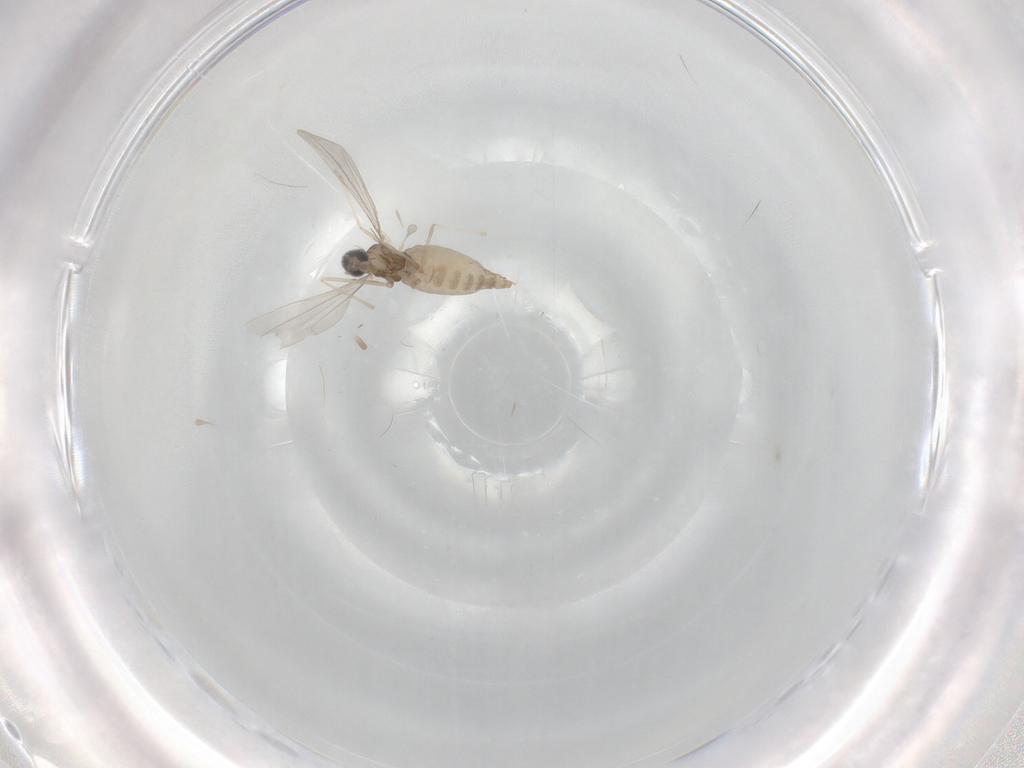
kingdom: Animalia
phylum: Arthropoda
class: Insecta
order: Diptera
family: Cecidomyiidae
